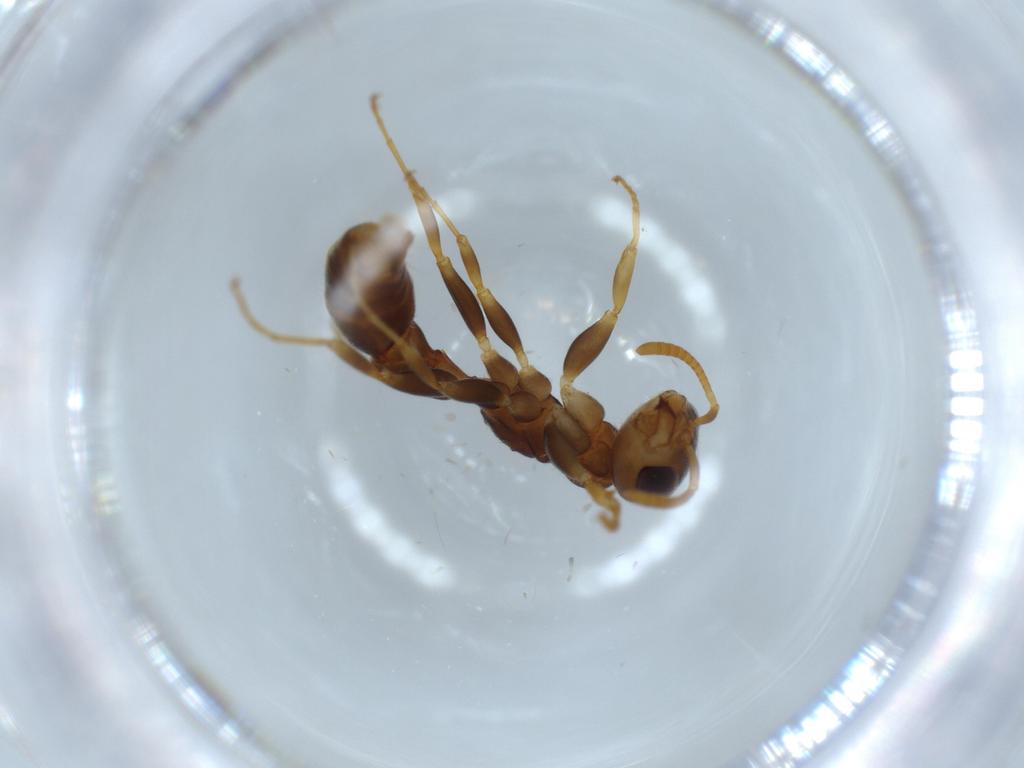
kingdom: Animalia
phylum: Arthropoda
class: Insecta
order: Hymenoptera
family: Formicidae
